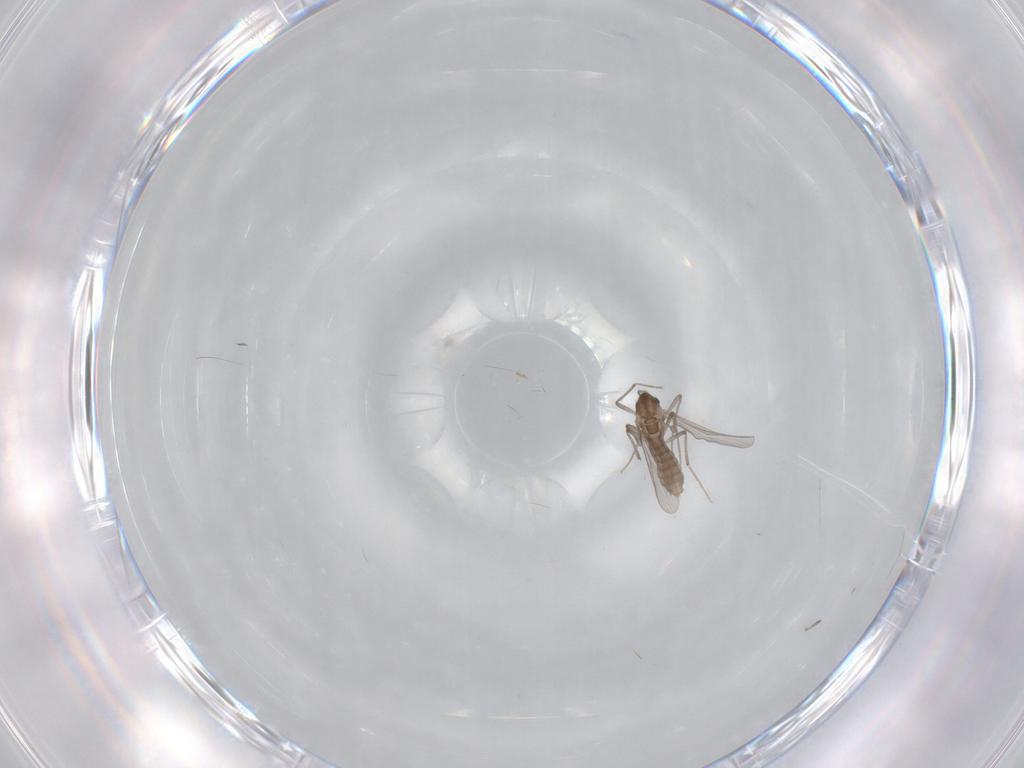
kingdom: Animalia
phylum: Arthropoda
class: Insecta
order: Diptera
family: Chironomidae
